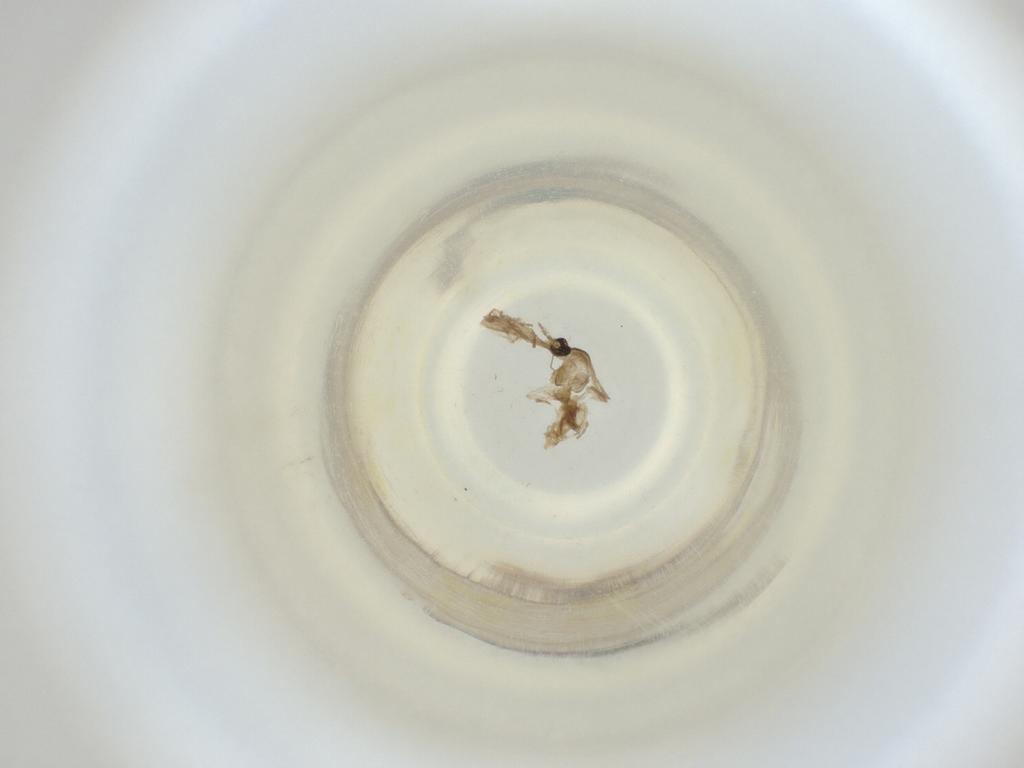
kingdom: Animalia
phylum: Arthropoda
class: Insecta
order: Diptera
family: Cecidomyiidae
